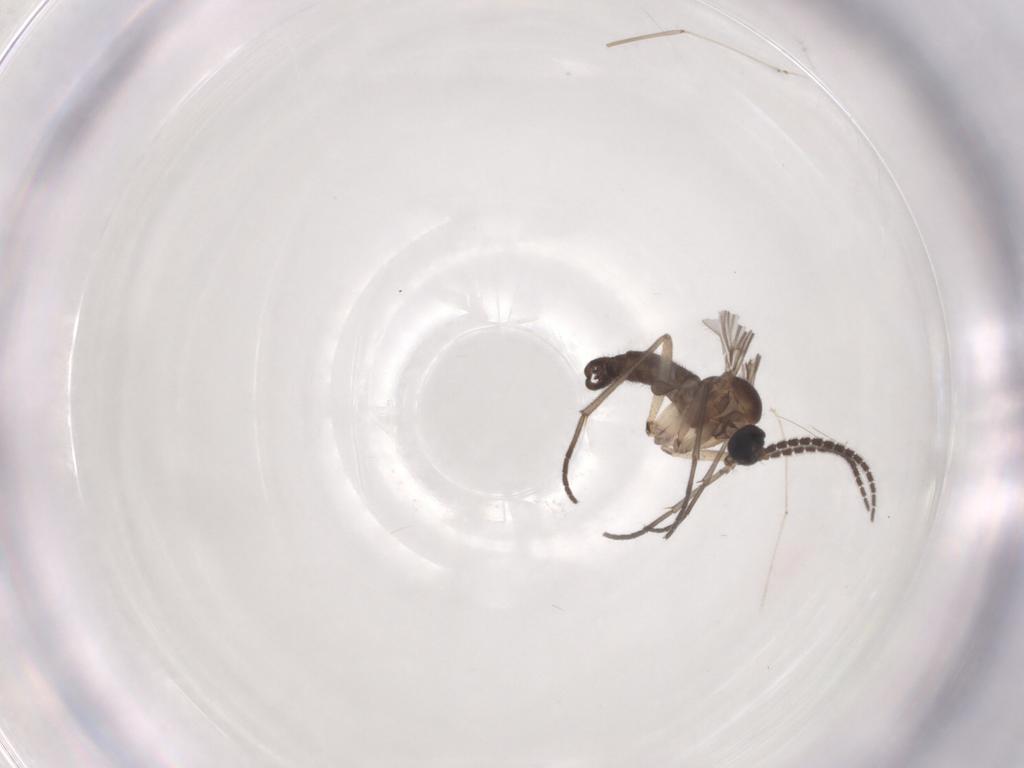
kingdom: Animalia
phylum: Arthropoda
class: Insecta
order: Diptera
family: Sciaridae
